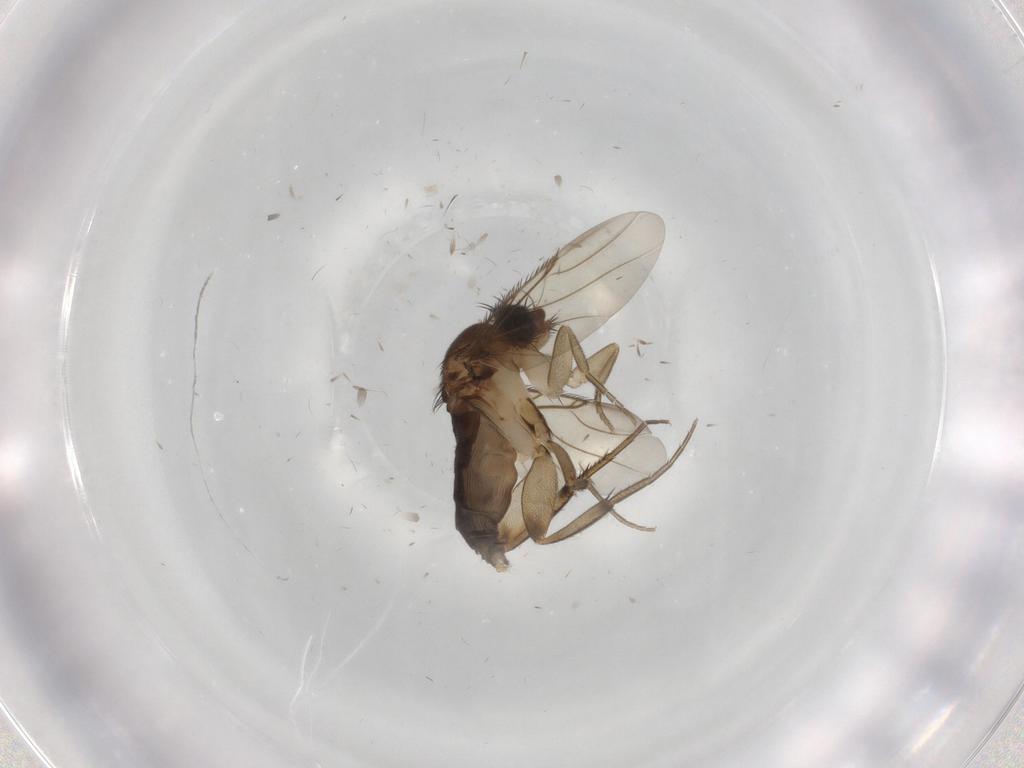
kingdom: Animalia
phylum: Arthropoda
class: Insecta
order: Diptera
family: Phoridae
